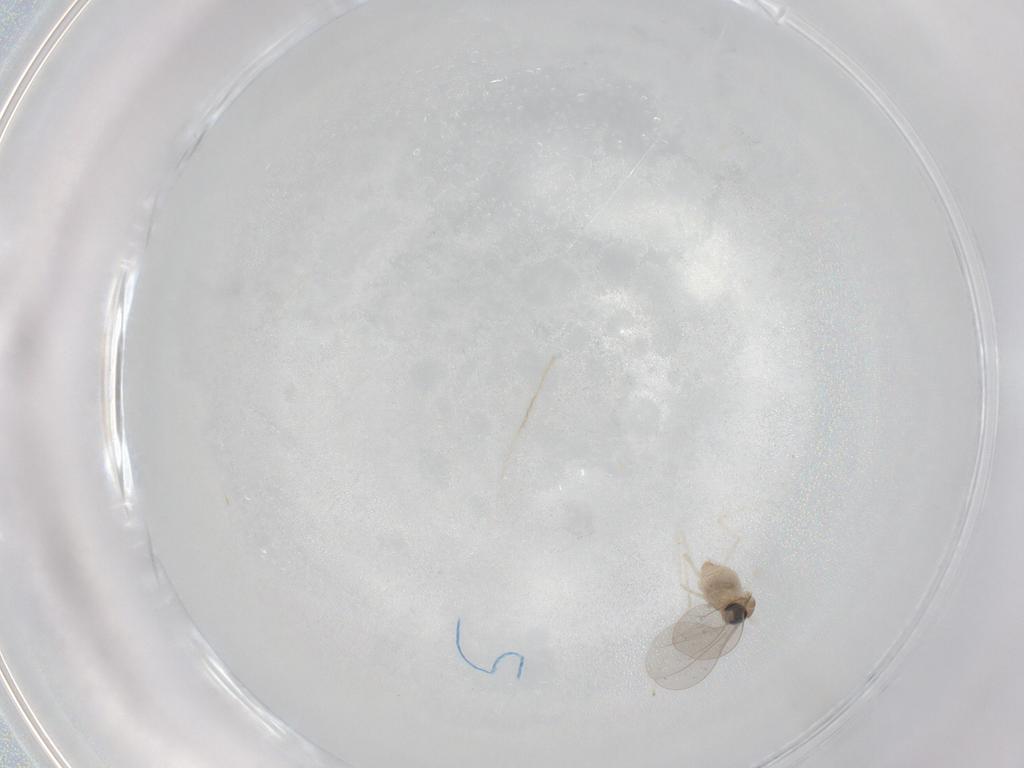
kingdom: Animalia
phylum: Arthropoda
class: Insecta
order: Diptera
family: Cecidomyiidae
